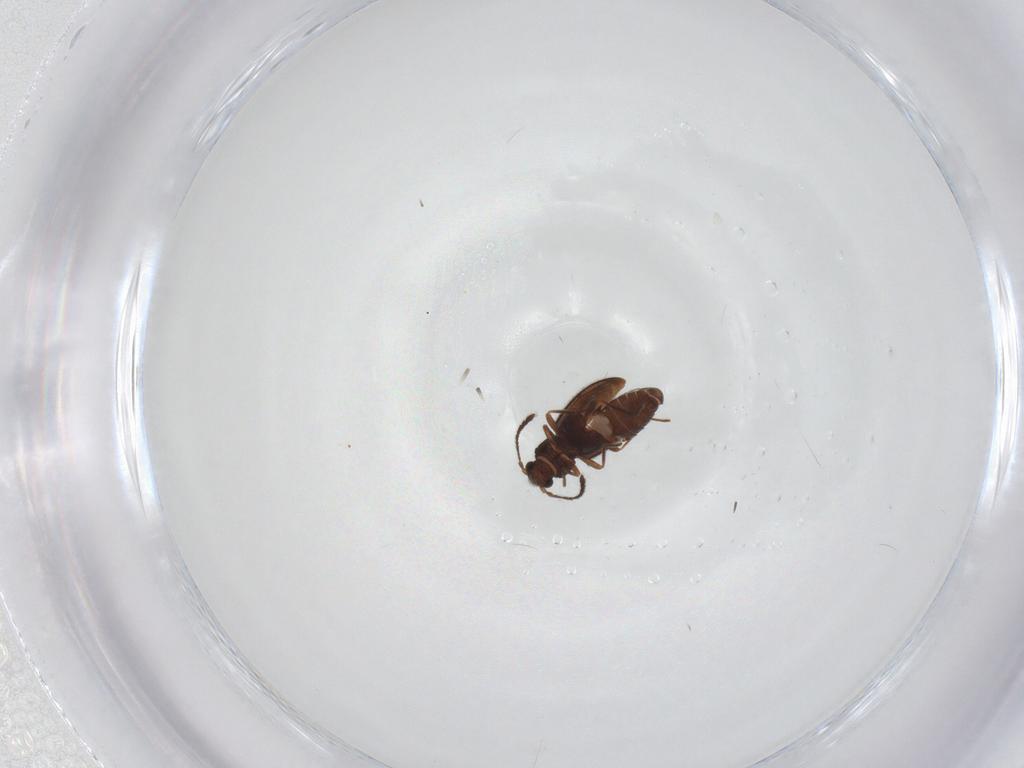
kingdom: Animalia
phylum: Arthropoda
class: Insecta
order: Coleoptera
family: Cryptophagidae
